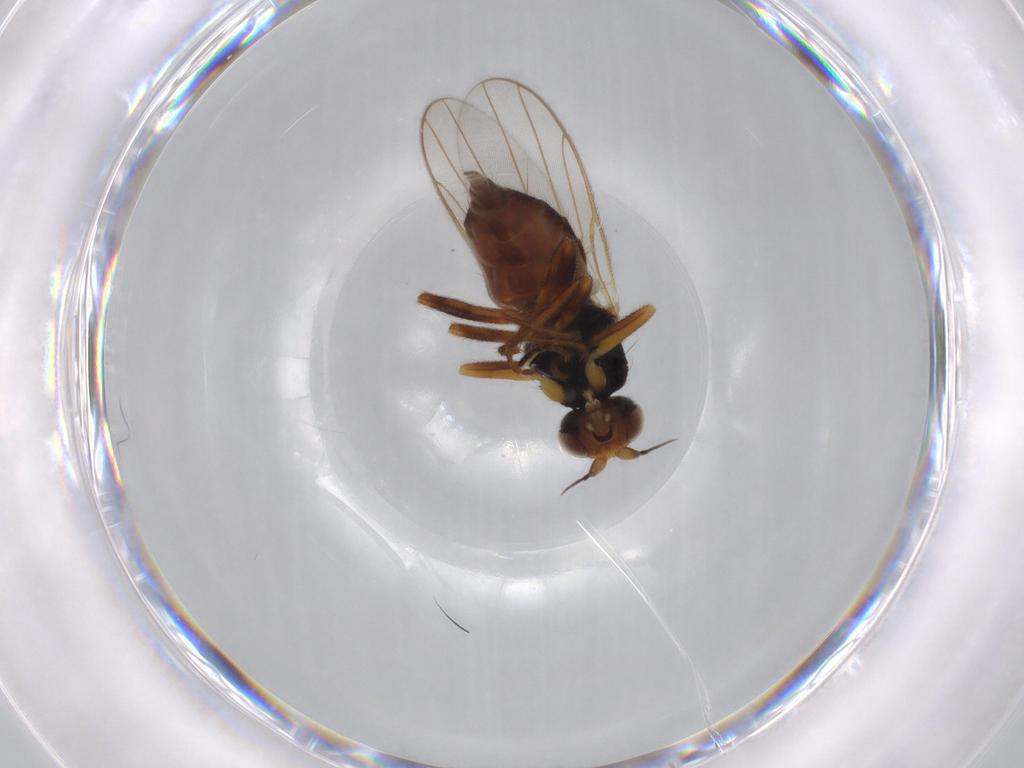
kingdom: Animalia
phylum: Arthropoda
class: Insecta
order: Diptera
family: Chloropidae
